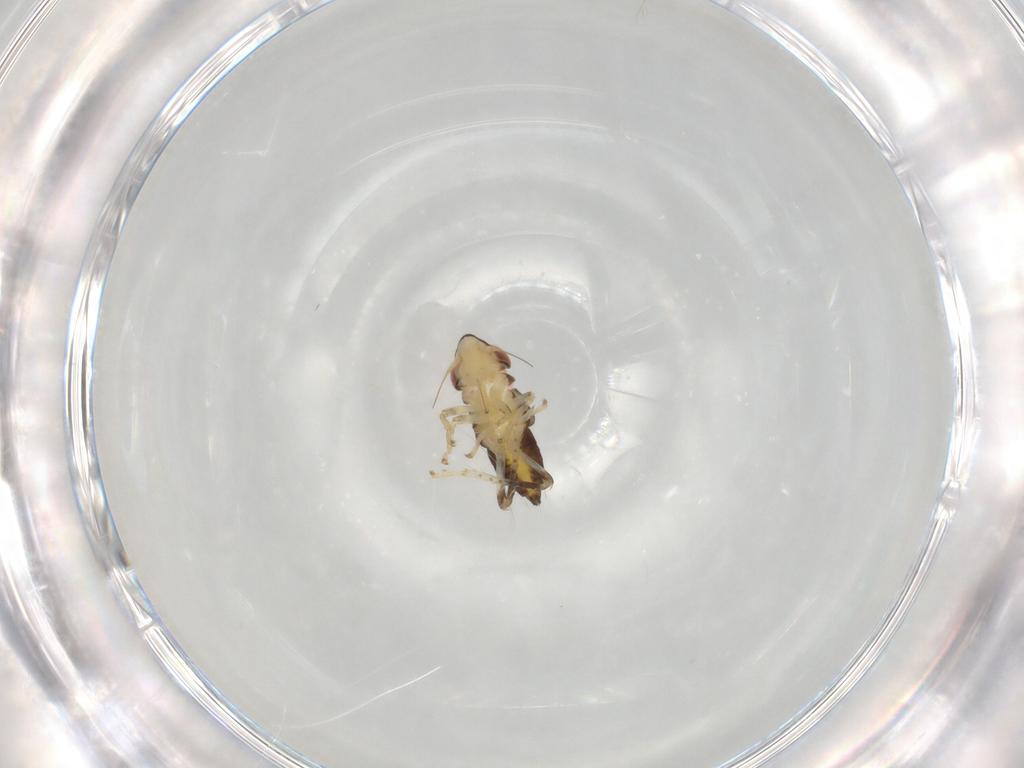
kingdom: Animalia
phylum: Arthropoda
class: Insecta
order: Hemiptera
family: Cicadellidae
